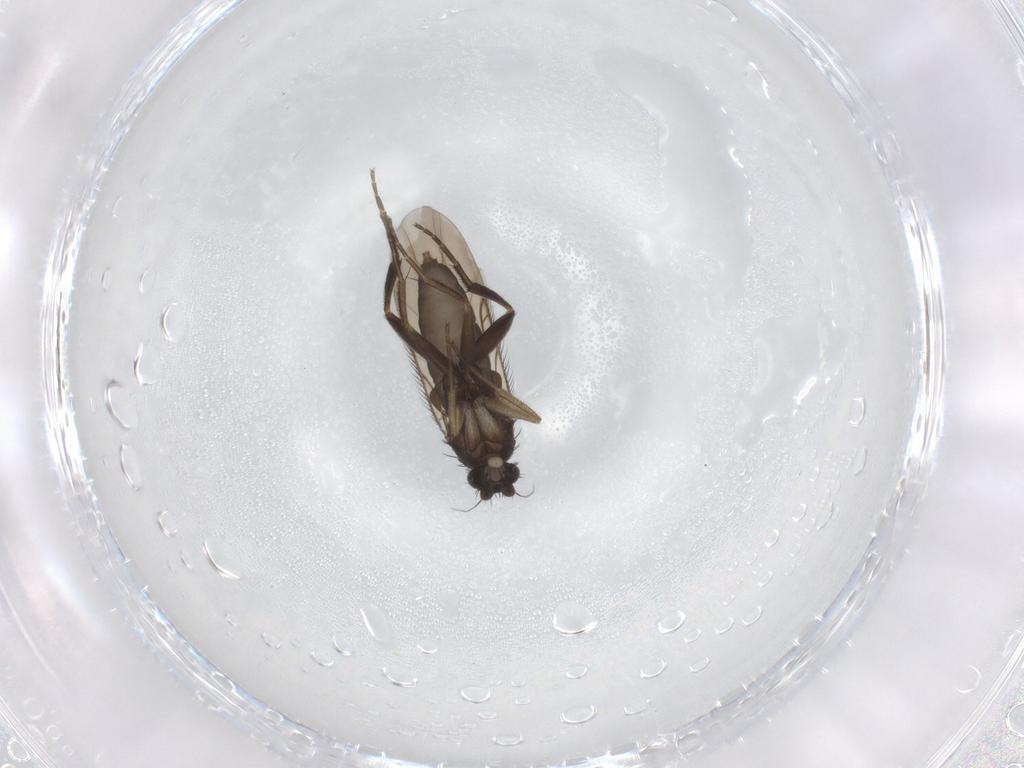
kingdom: Animalia
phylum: Arthropoda
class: Insecta
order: Diptera
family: Phoridae
